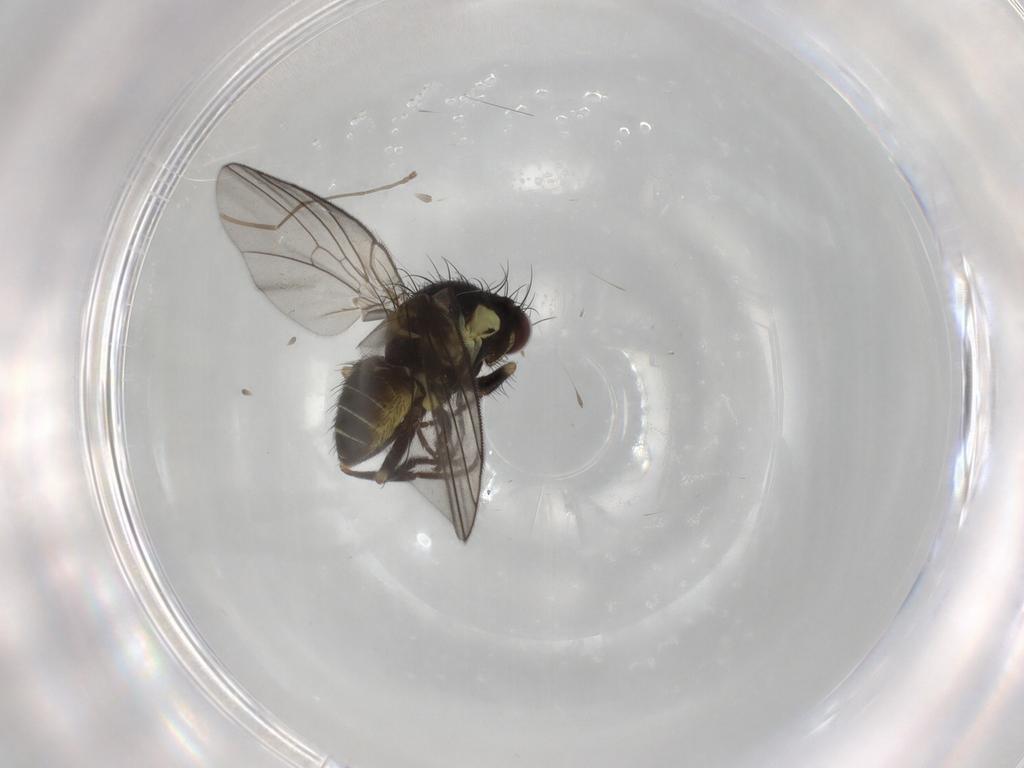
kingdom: Animalia
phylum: Arthropoda
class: Insecta
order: Diptera
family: Agromyzidae
